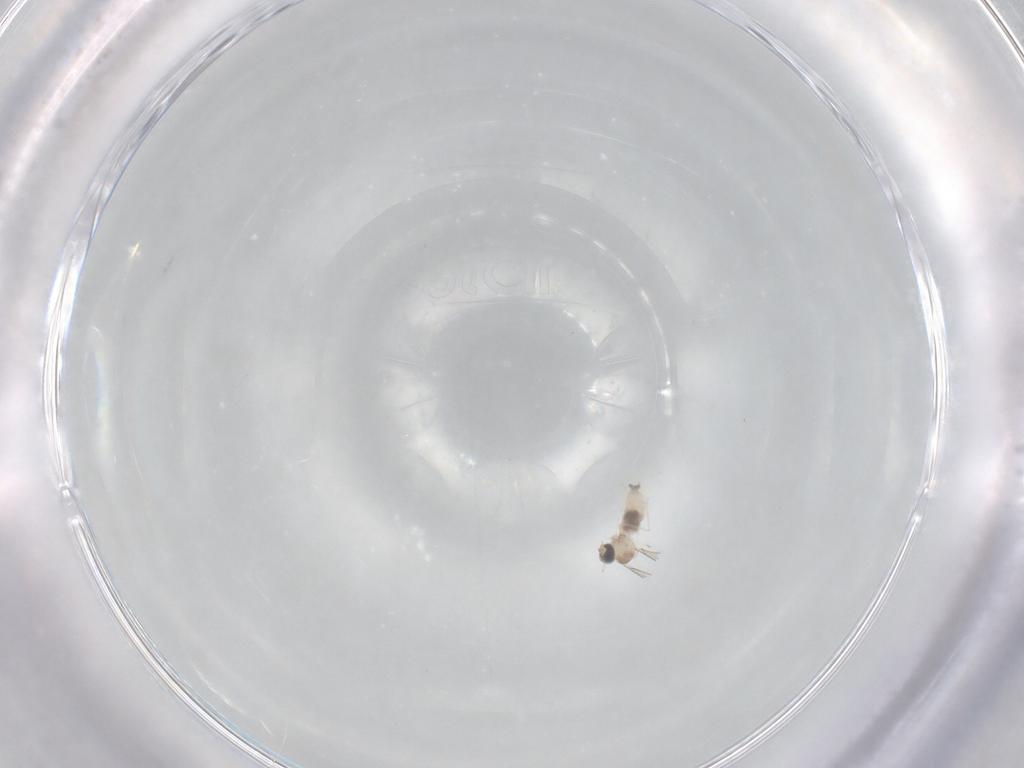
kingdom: Animalia
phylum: Arthropoda
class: Insecta
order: Diptera
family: Cecidomyiidae
